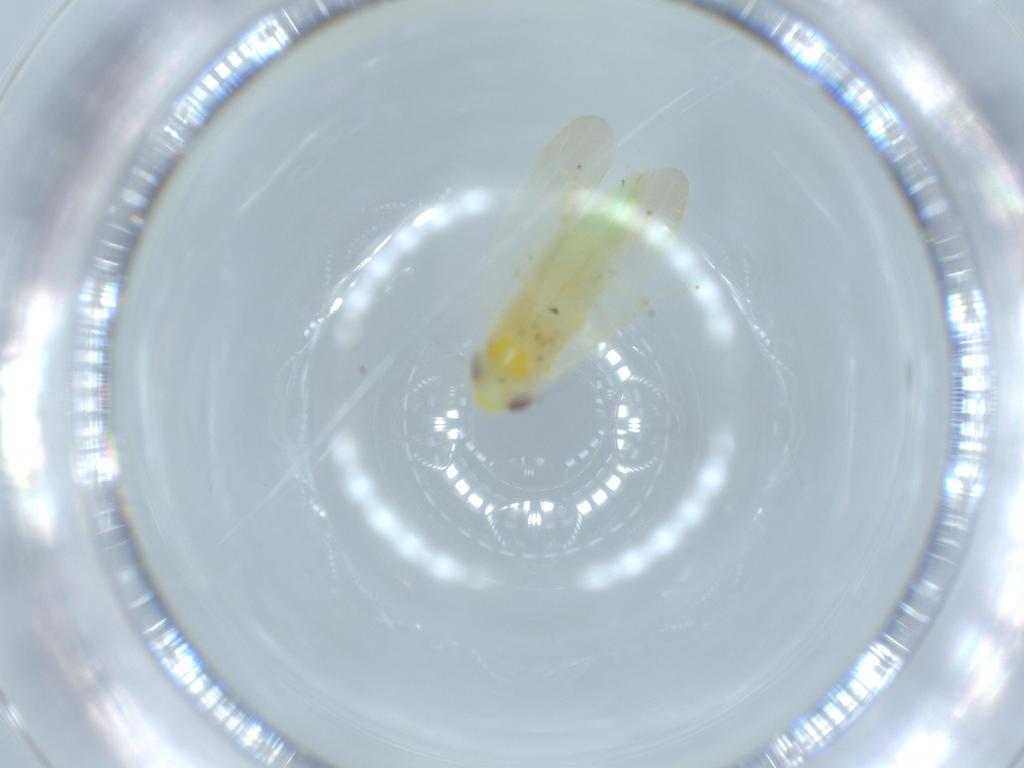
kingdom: Animalia
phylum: Arthropoda
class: Insecta
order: Hemiptera
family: Cicadellidae
